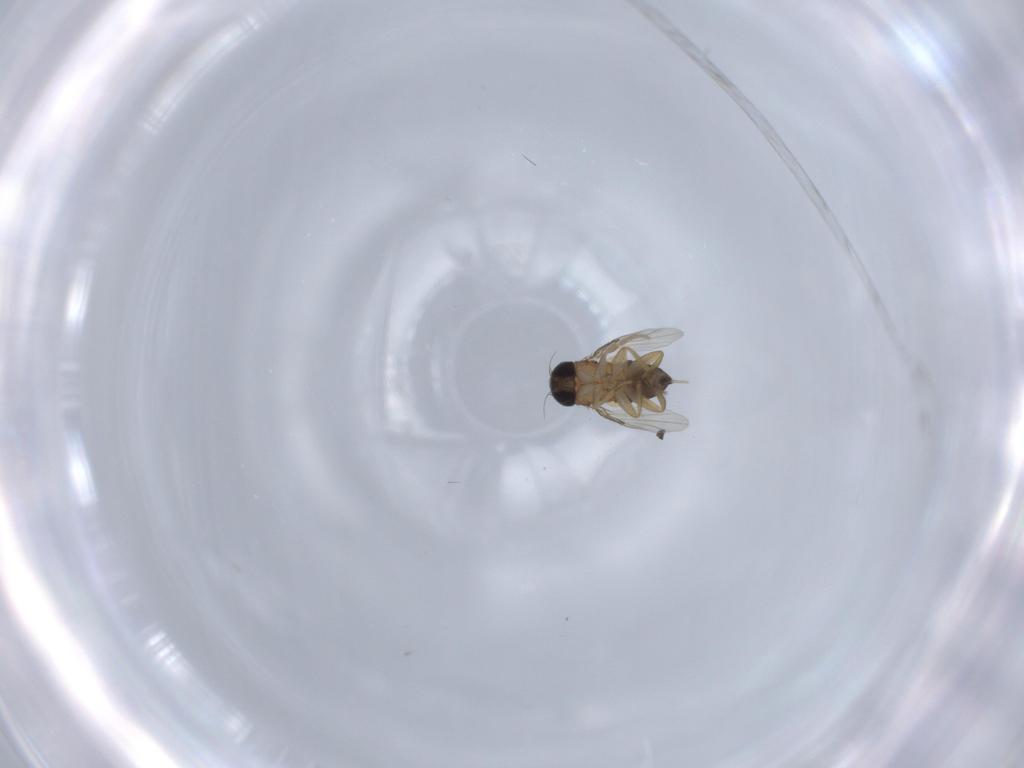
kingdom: Animalia
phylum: Arthropoda
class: Insecta
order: Diptera
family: Phoridae
